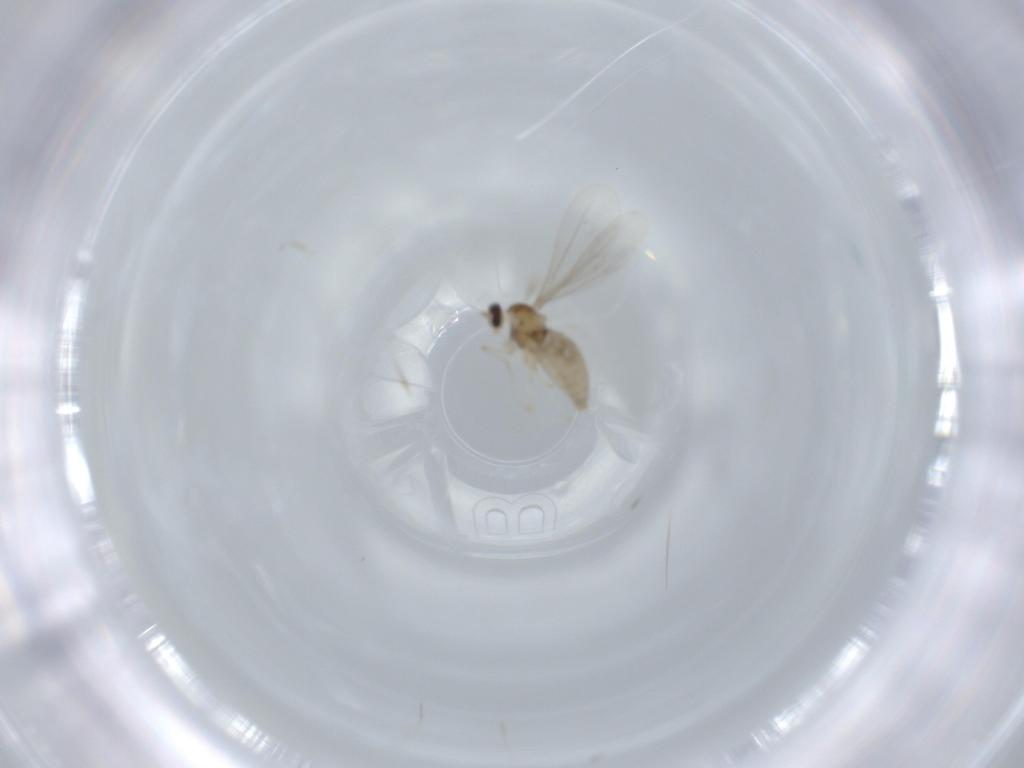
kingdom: Animalia
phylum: Arthropoda
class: Insecta
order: Diptera
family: Cecidomyiidae
